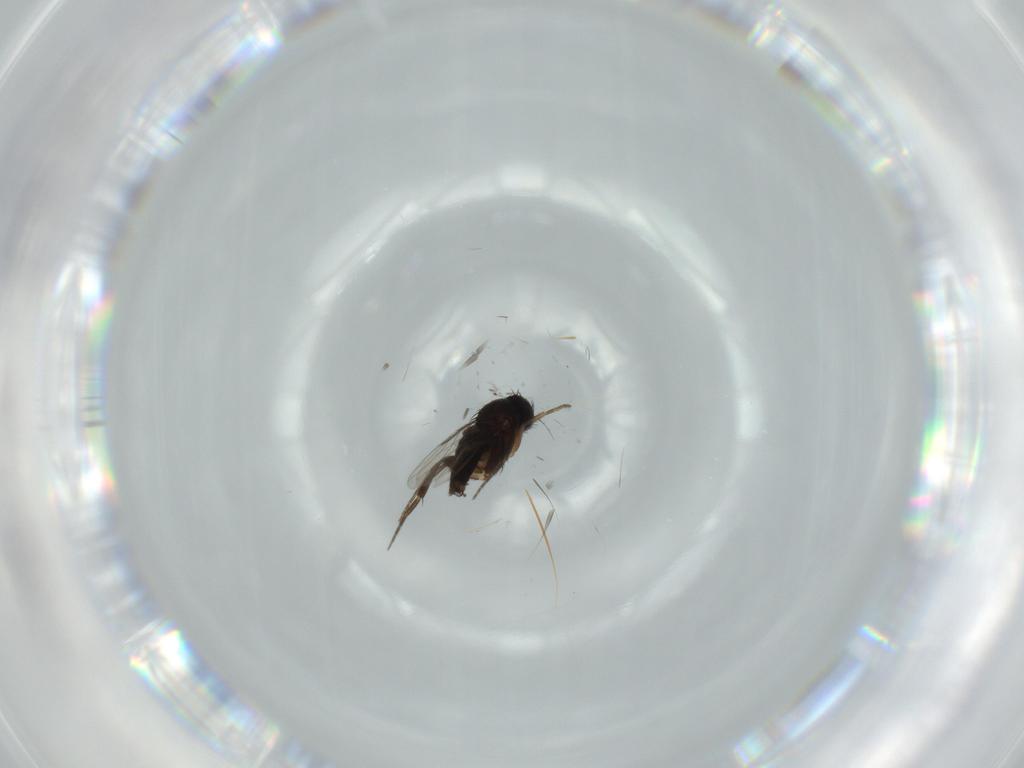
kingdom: Animalia
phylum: Arthropoda
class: Insecta
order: Diptera
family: Phoridae
